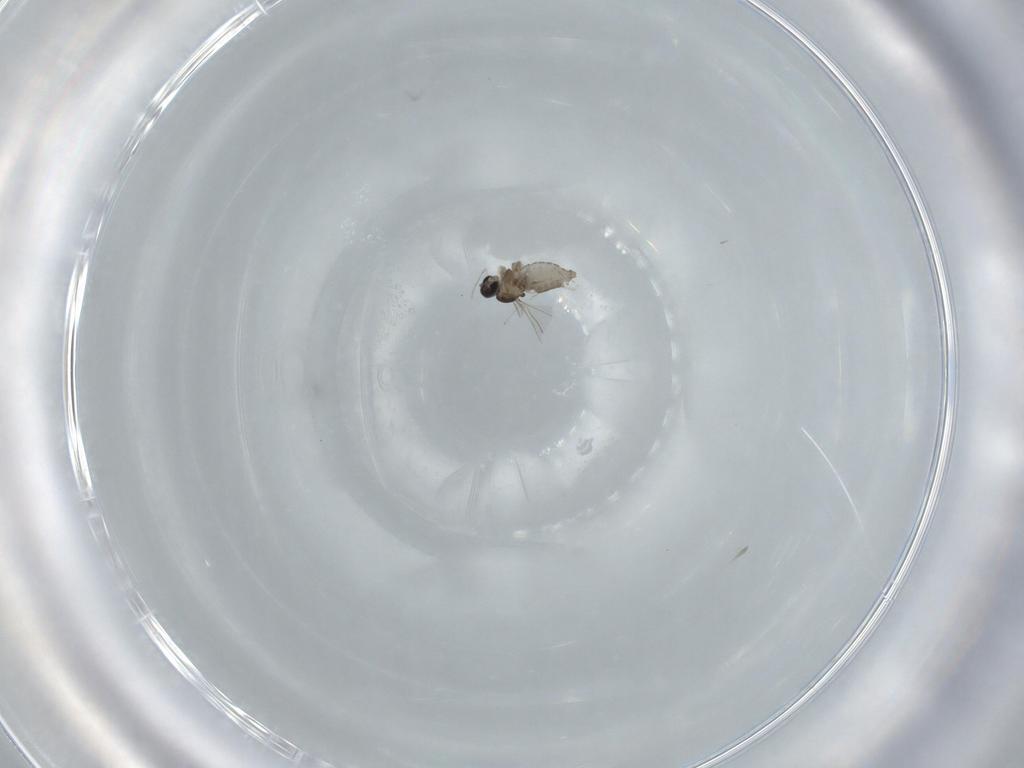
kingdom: Animalia
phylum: Arthropoda
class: Insecta
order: Diptera
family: Cecidomyiidae
